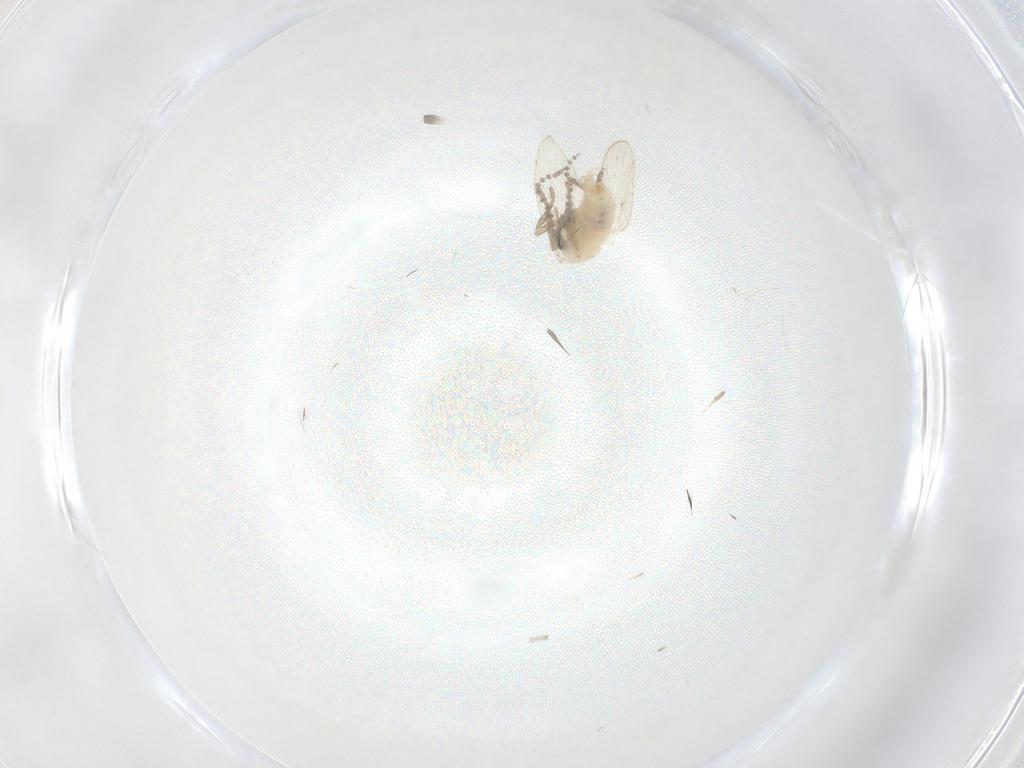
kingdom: Animalia
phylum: Arthropoda
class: Insecta
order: Diptera
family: Psychodidae
